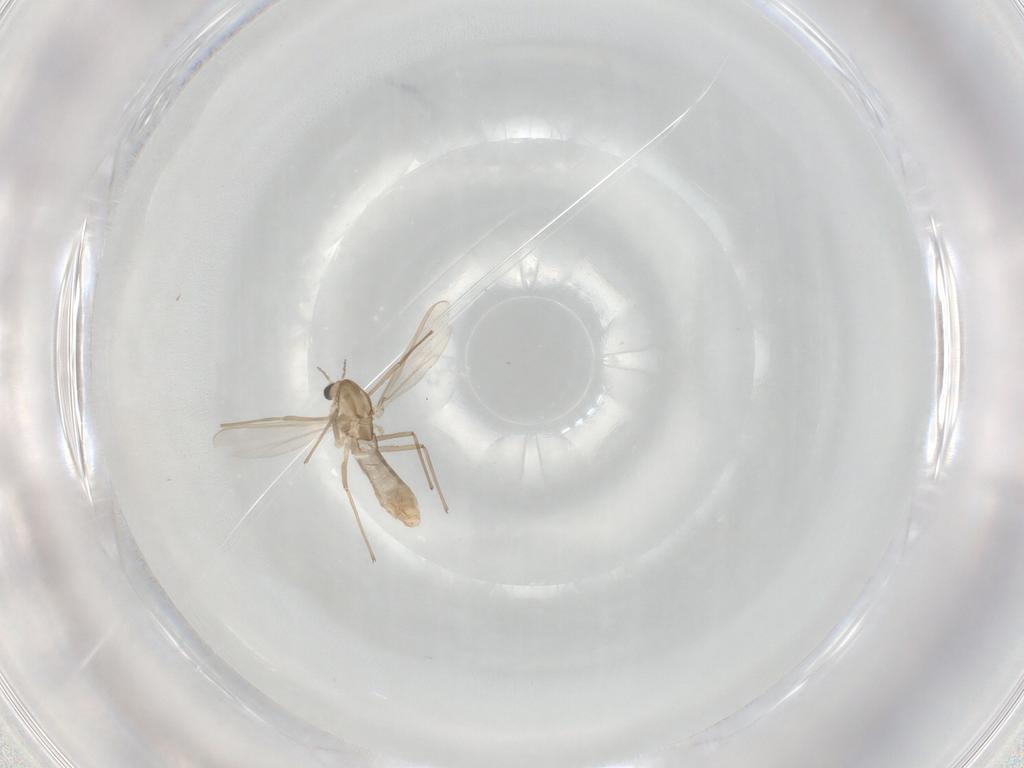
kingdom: Animalia
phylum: Arthropoda
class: Insecta
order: Diptera
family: Chironomidae
